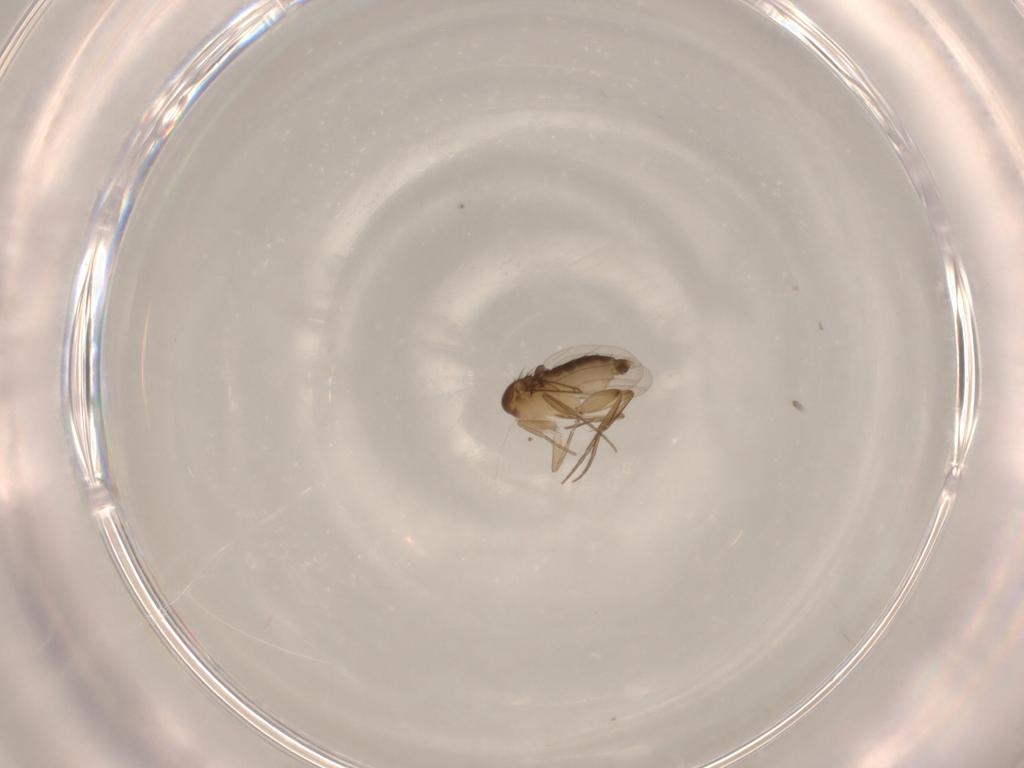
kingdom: Animalia
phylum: Arthropoda
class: Insecta
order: Diptera
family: Phoridae
